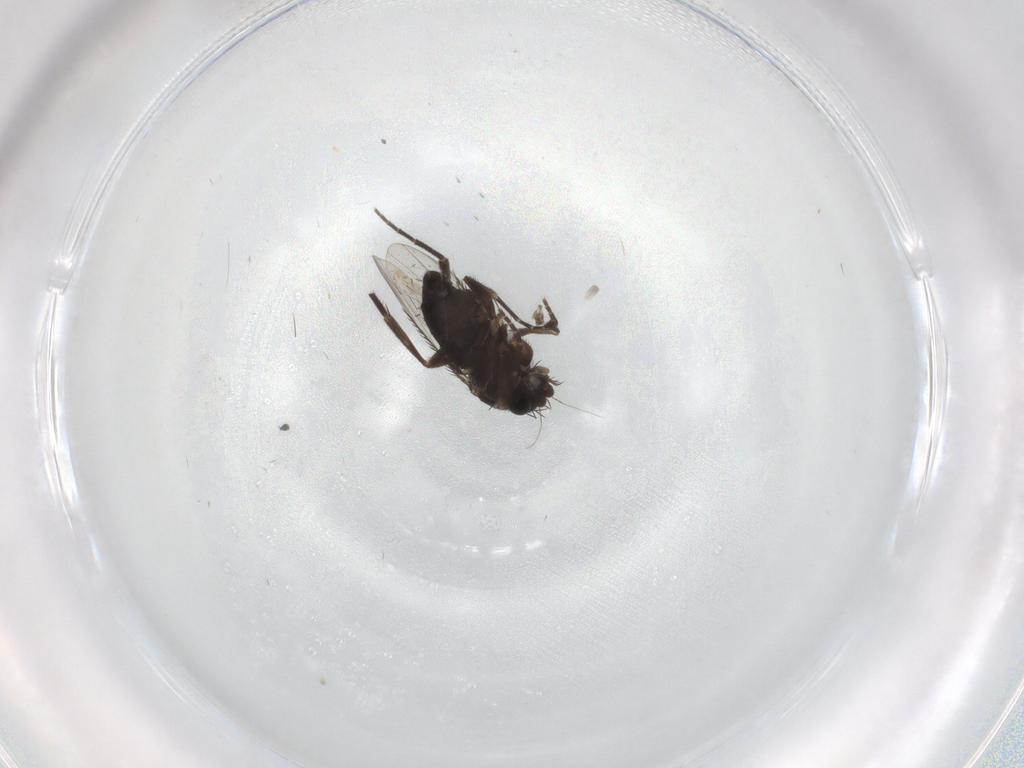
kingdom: Animalia
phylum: Arthropoda
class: Insecta
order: Diptera
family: Phoridae
